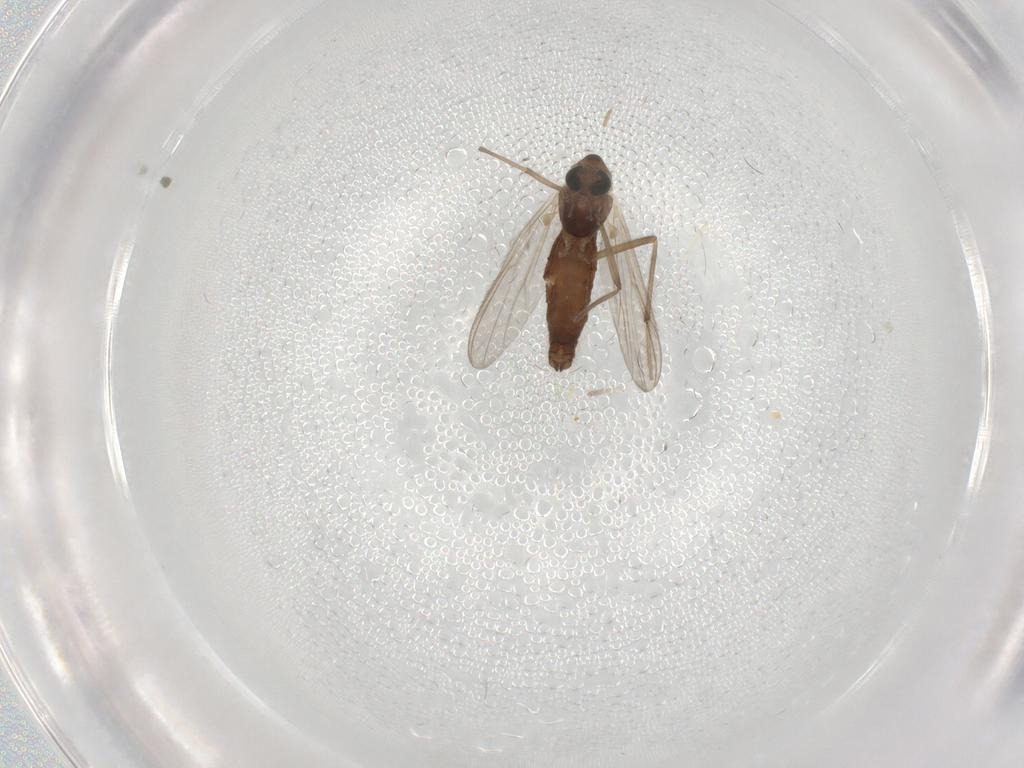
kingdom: Animalia
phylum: Arthropoda
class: Insecta
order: Diptera
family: Chironomidae
